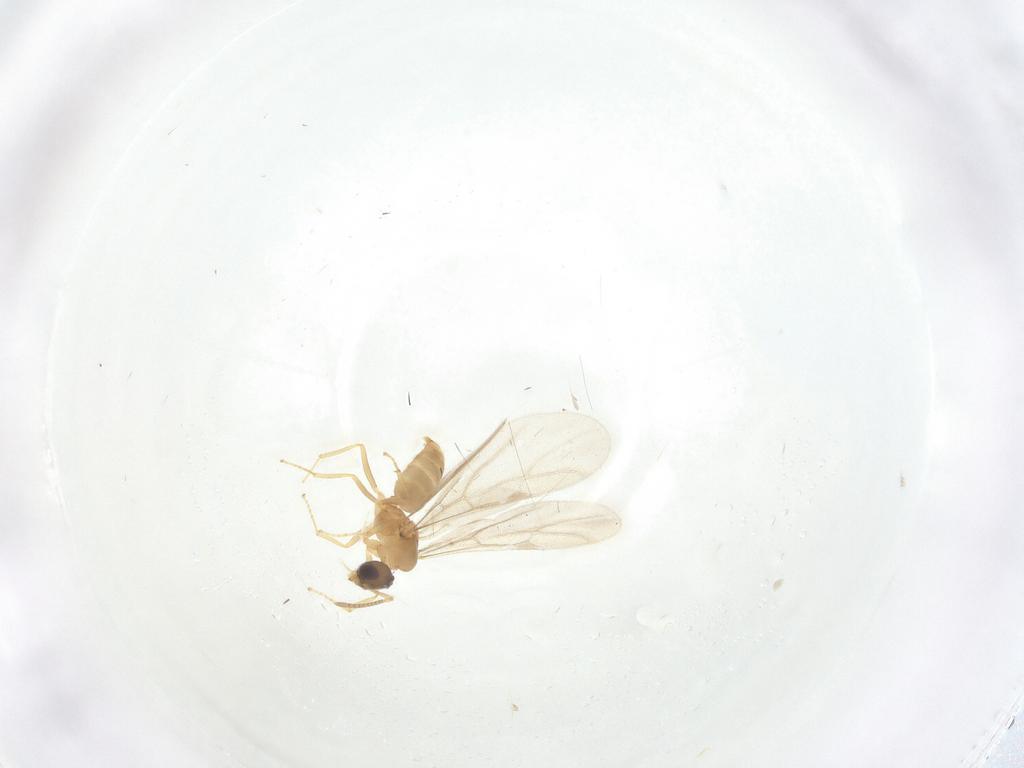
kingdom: Animalia
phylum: Arthropoda
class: Insecta
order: Hymenoptera
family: Formicidae
